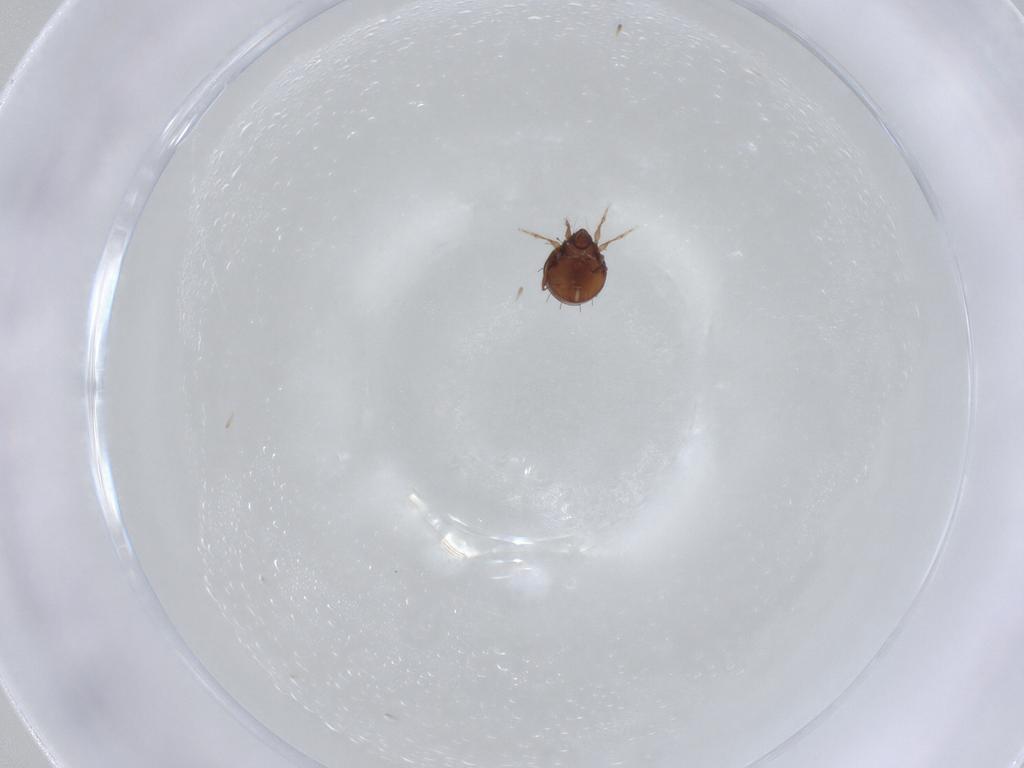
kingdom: Animalia
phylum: Arthropoda
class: Arachnida
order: Sarcoptiformes
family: Caloppiidae
